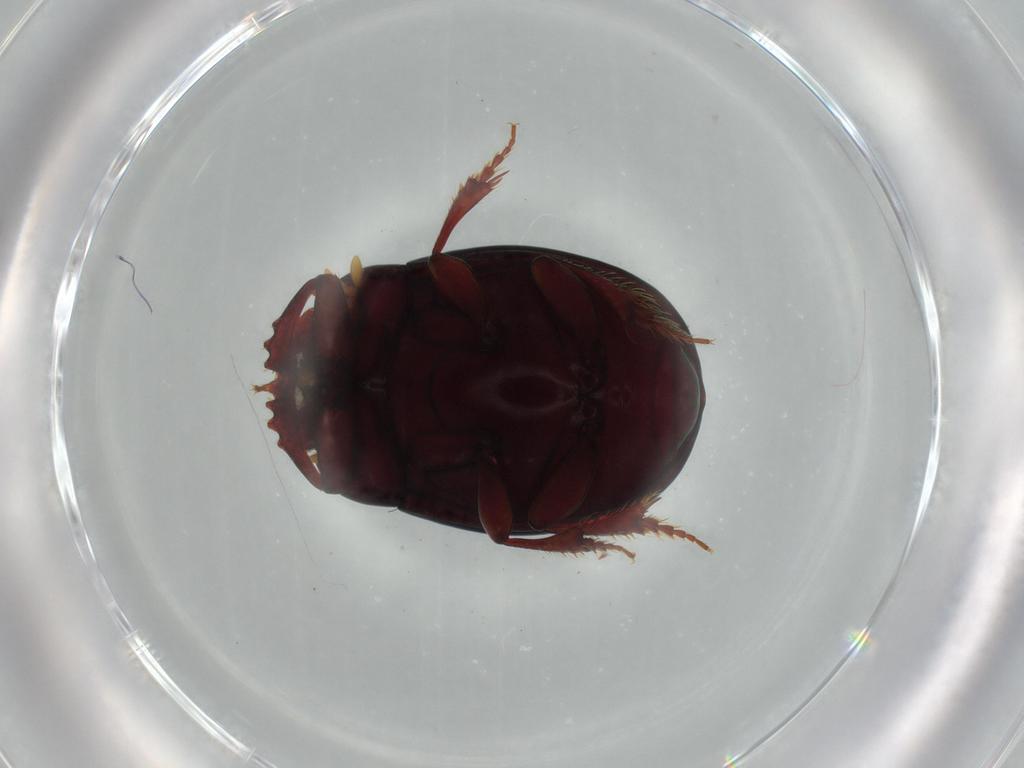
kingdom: Animalia
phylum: Arthropoda
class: Insecta
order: Coleoptera
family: Scarabaeidae
